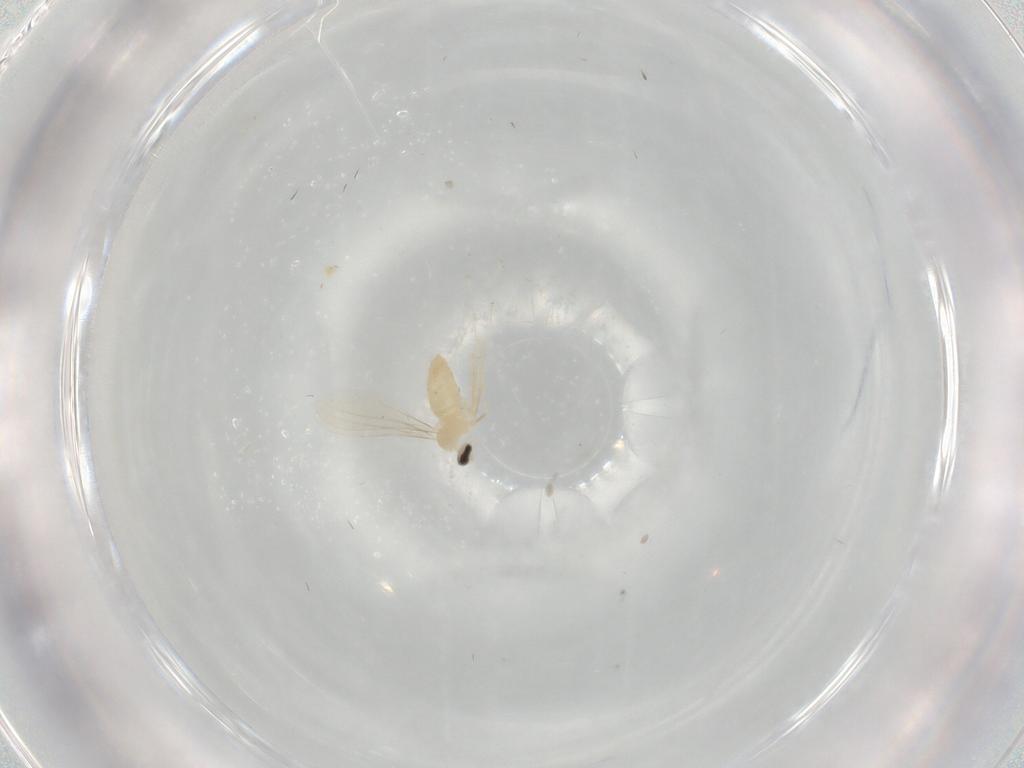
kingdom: Animalia
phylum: Arthropoda
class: Insecta
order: Diptera
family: Cecidomyiidae
